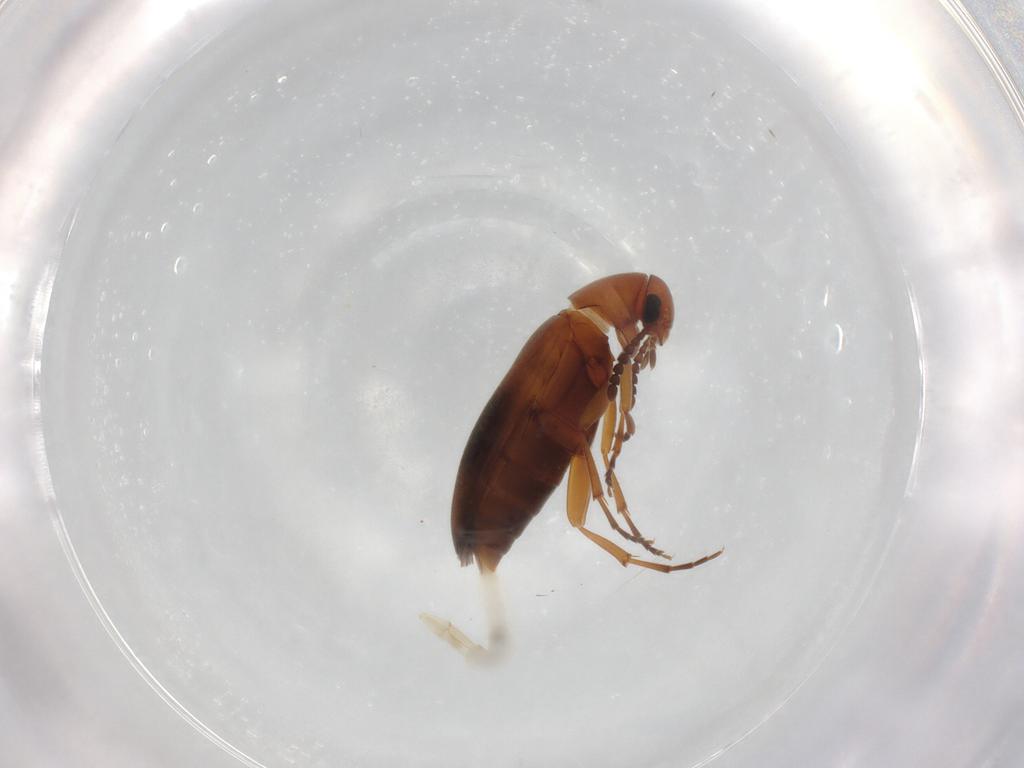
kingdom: Animalia
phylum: Arthropoda
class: Insecta
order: Coleoptera
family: Scraptiidae
